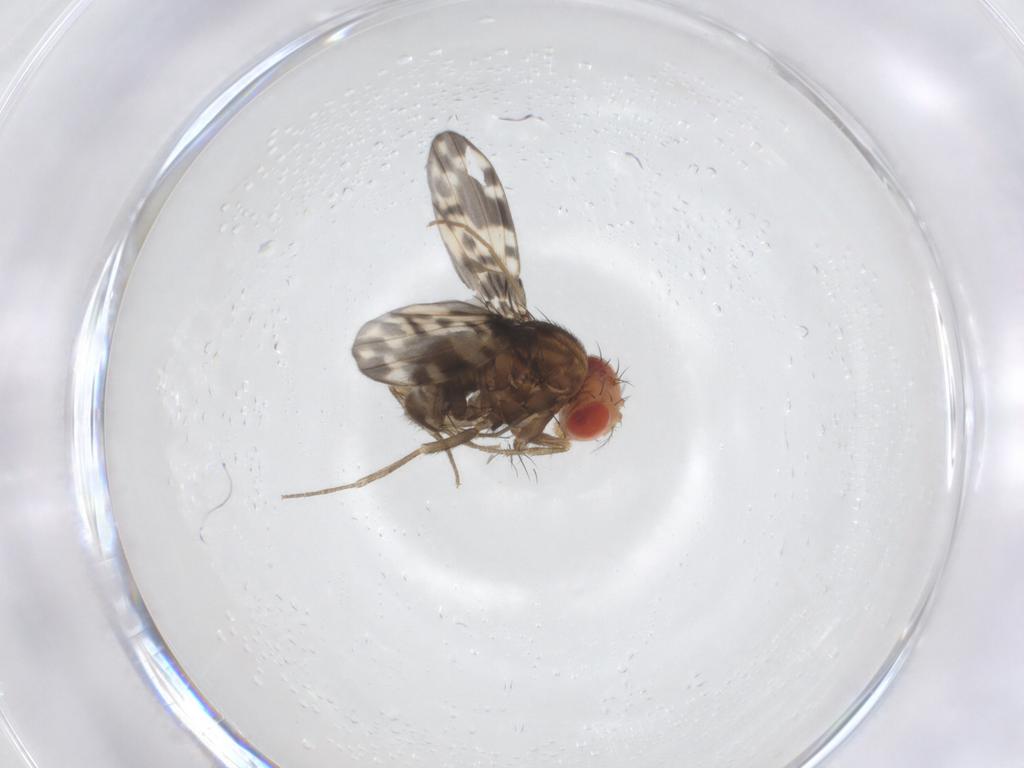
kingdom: Animalia
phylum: Arthropoda
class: Insecta
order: Diptera
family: Drosophilidae
